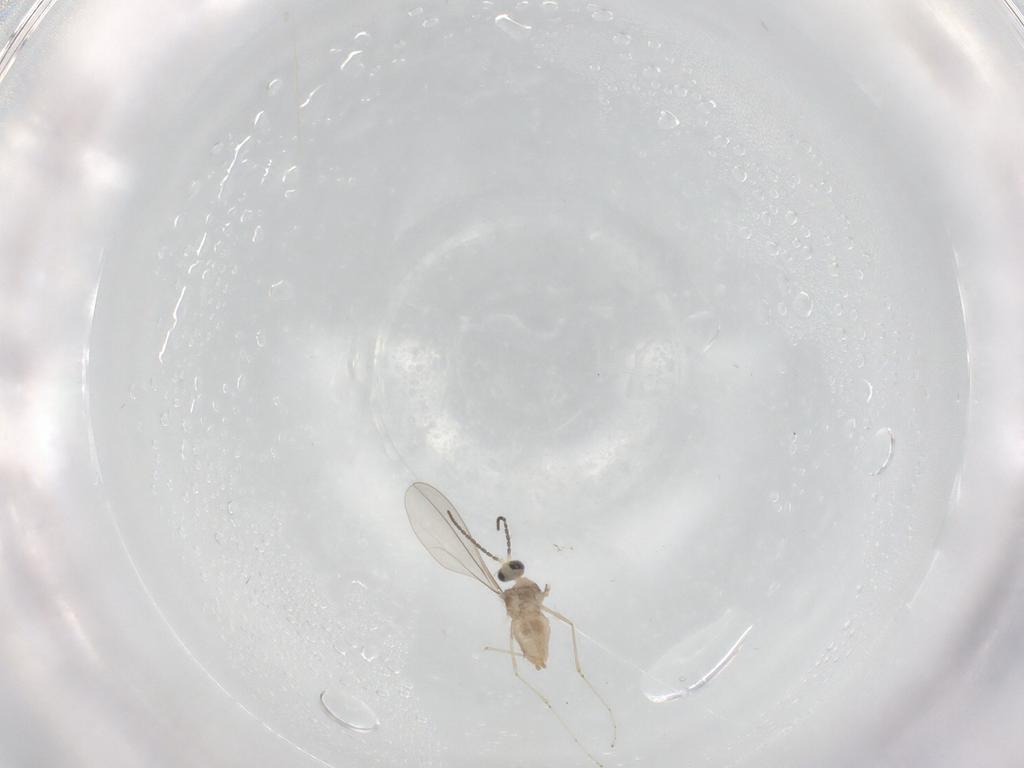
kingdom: Animalia
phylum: Arthropoda
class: Insecta
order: Diptera
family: Cecidomyiidae
